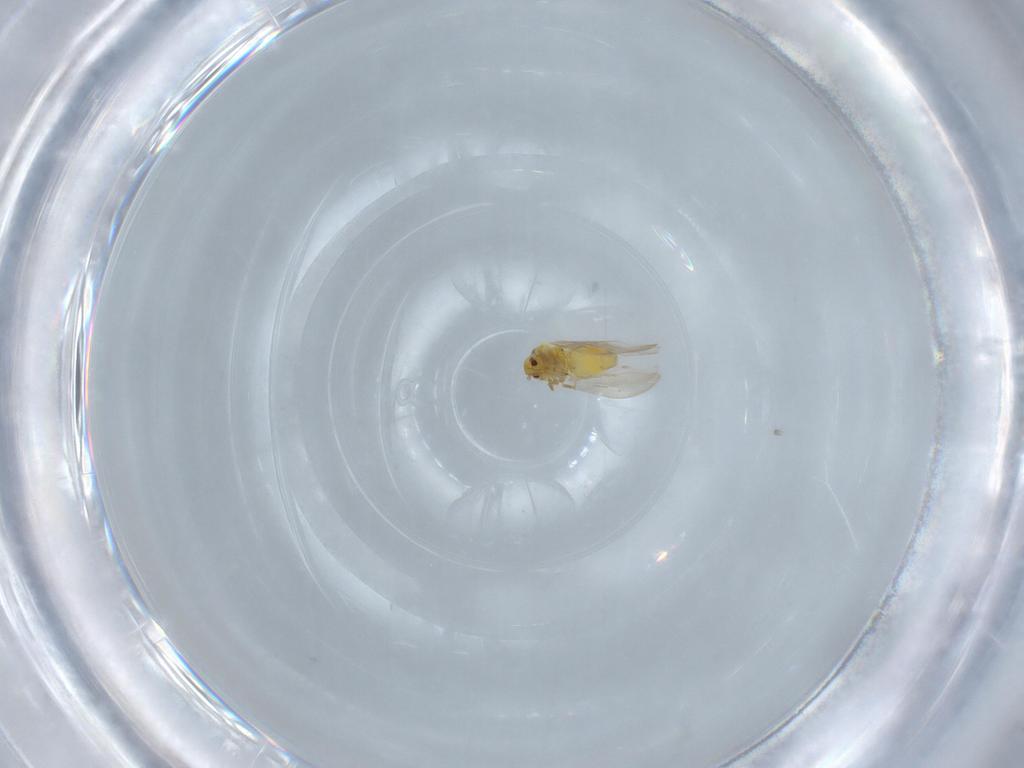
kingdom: Animalia
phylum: Arthropoda
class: Insecta
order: Hemiptera
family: Aleyrodidae
